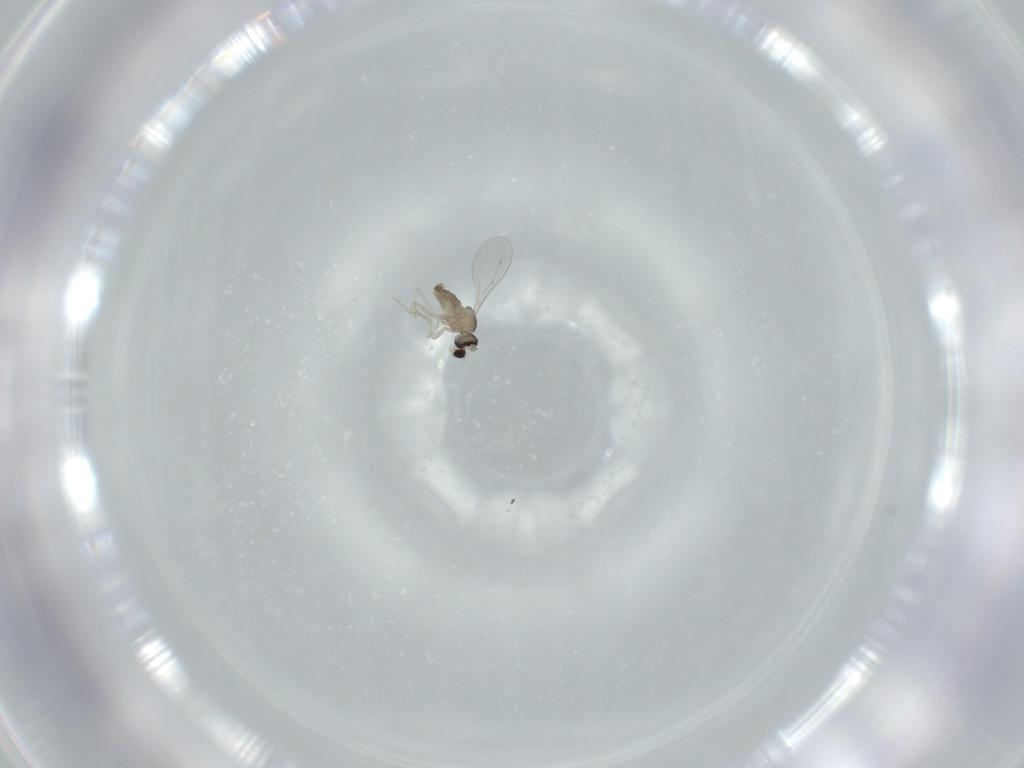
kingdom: Animalia
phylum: Arthropoda
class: Insecta
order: Diptera
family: Cecidomyiidae
